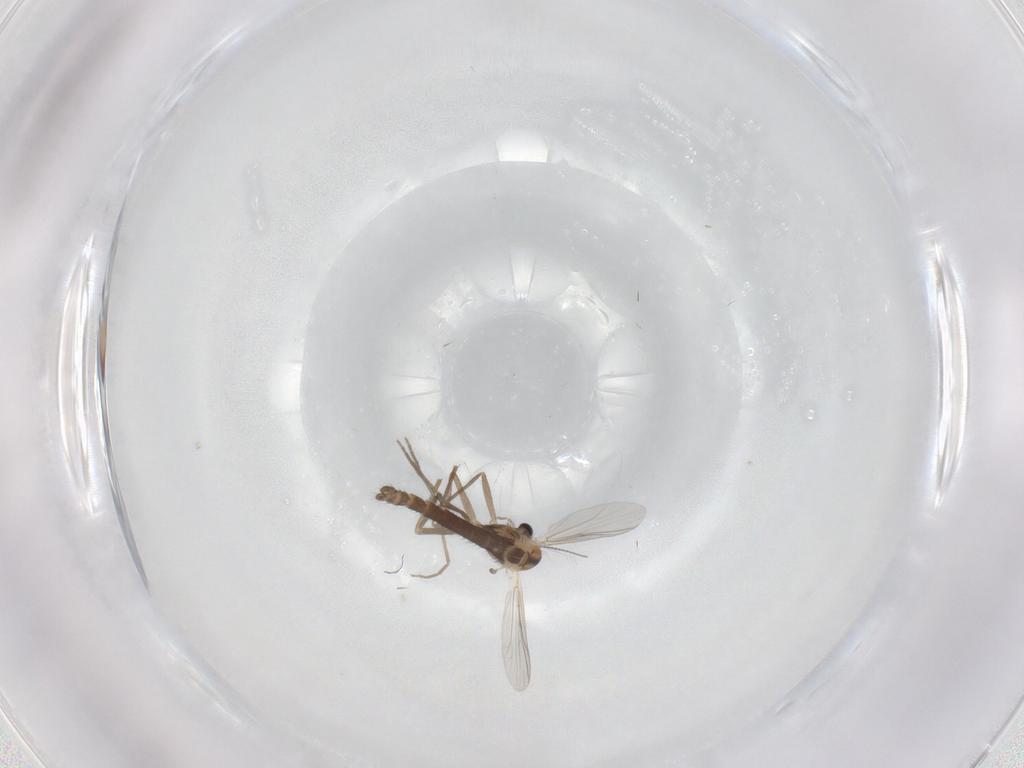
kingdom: Animalia
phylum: Arthropoda
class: Insecta
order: Diptera
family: Chironomidae
